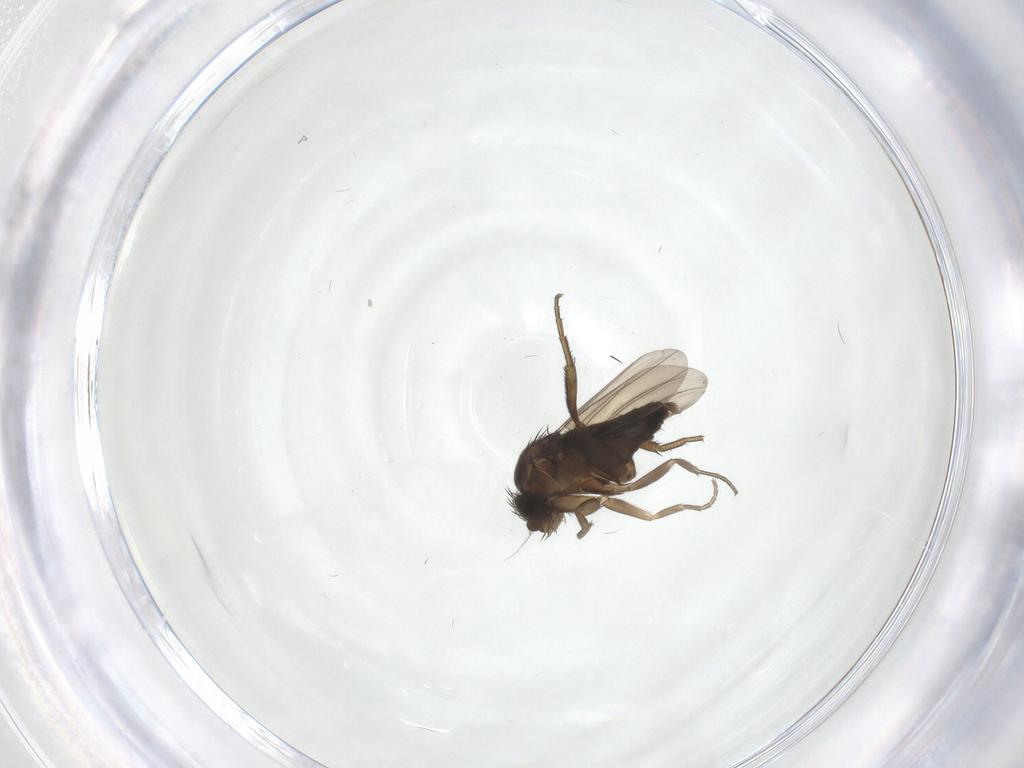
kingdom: Animalia
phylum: Arthropoda
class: Insecta
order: Diptera
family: Phoridae
